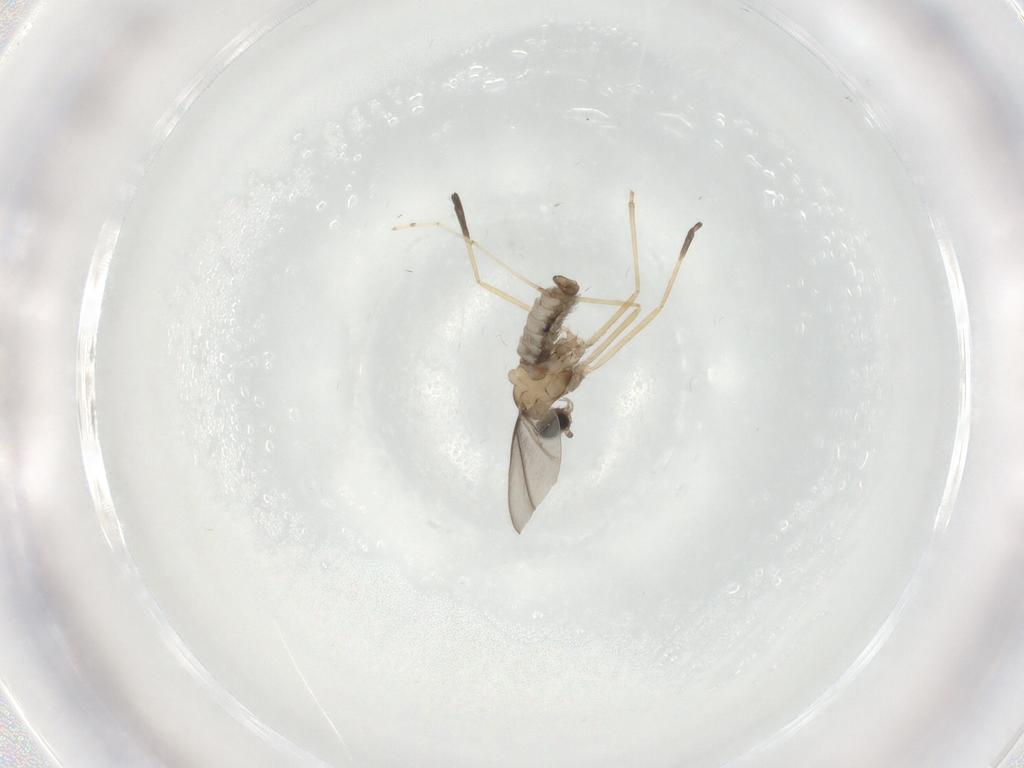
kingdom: Animalia
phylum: Arthropoda
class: Insecta
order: Diptera
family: Cecidomyiidae
